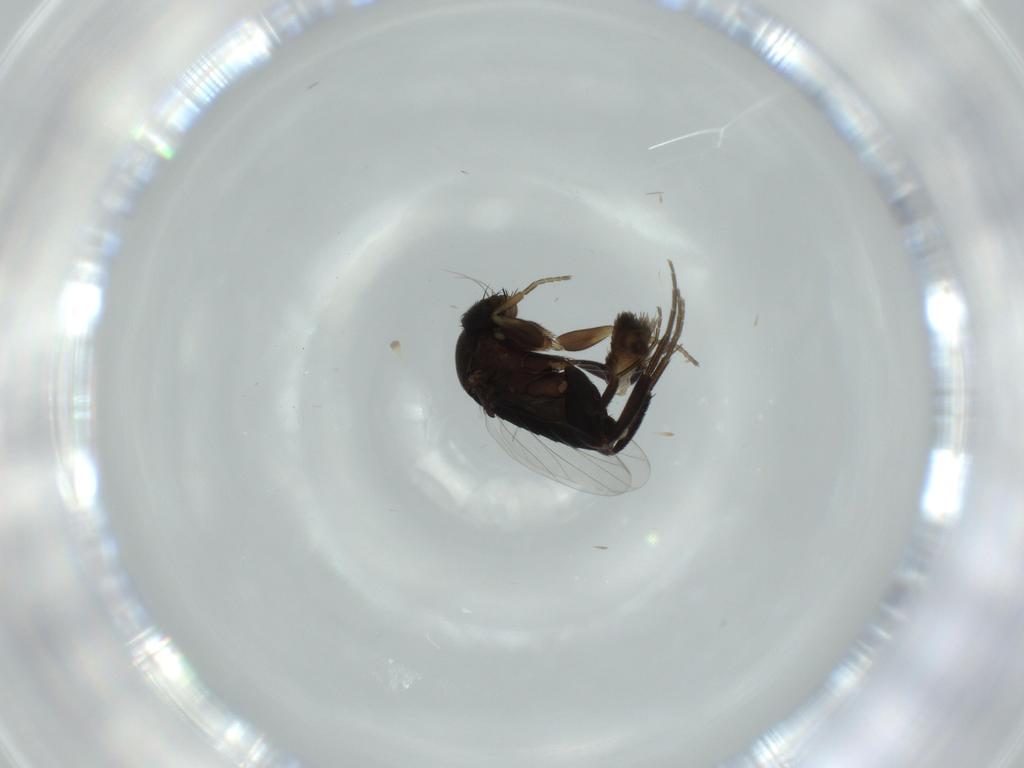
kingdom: Animalia
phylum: Arthropoda
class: Insecta
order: Diptera
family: Phoridae
